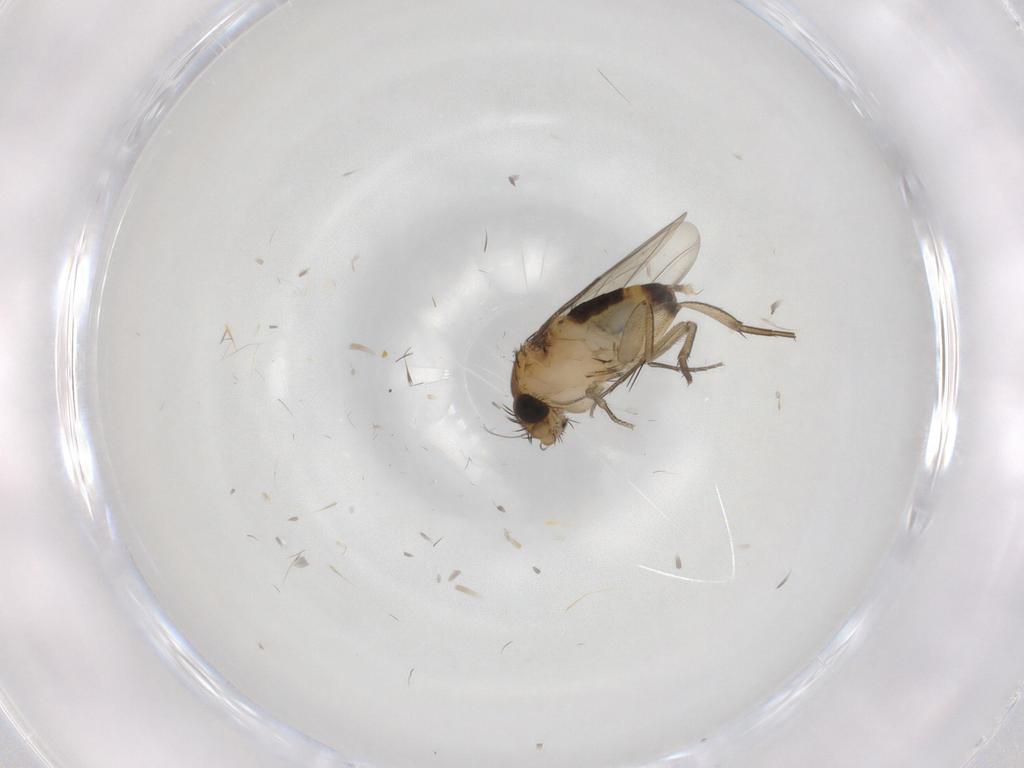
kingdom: Animalia
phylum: Arthropoda
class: Insecta
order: Diptera
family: Phoridae
